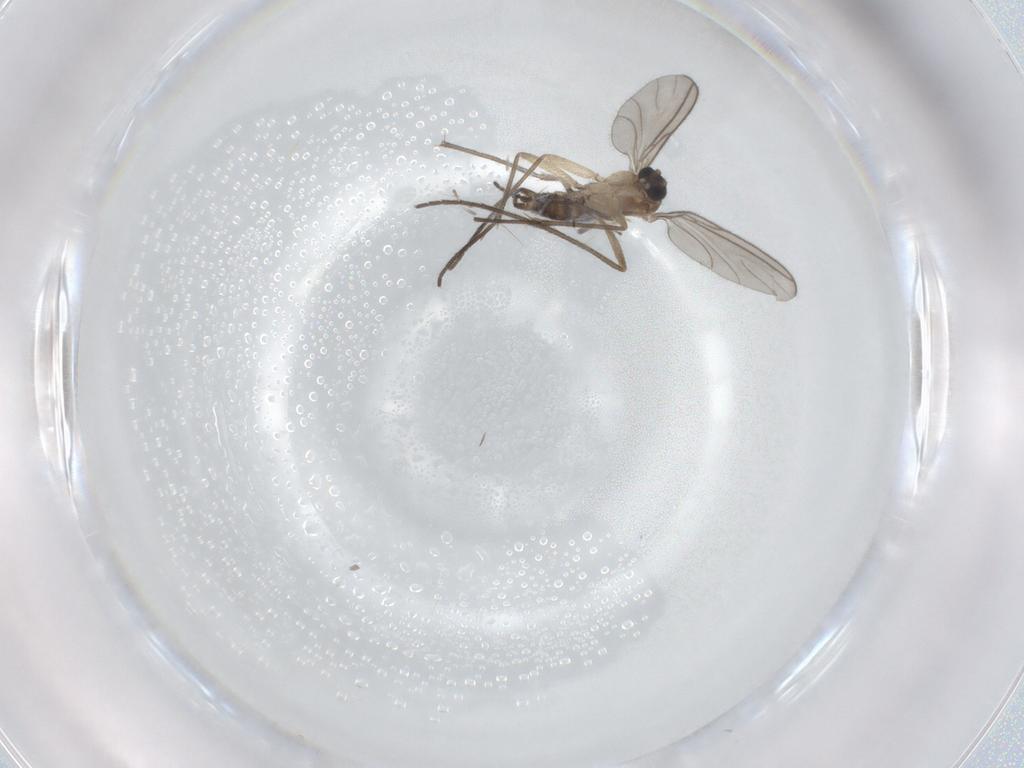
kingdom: Animalia
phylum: Arthropoda
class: Insecta
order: Diptera
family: Sciaridae
